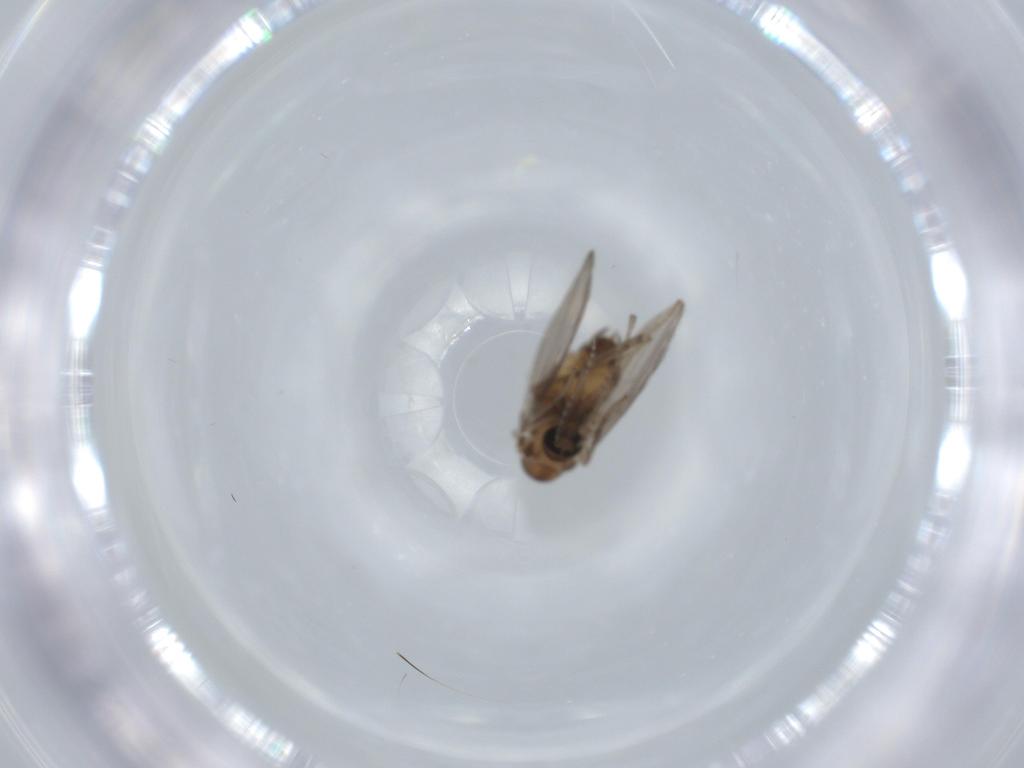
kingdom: Animalia
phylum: Arthropoda
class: Insecta
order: Diptera
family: Psychodidae
